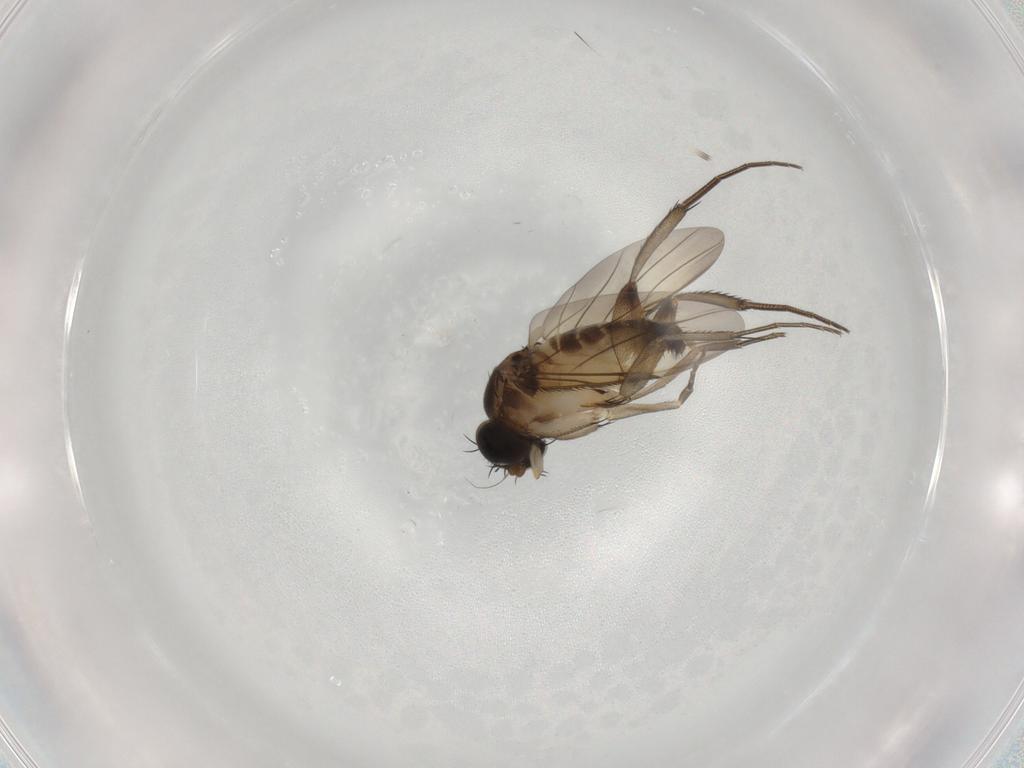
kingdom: Animalia
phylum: Arthropoda
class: Insecta
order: Diptera
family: Phoridae
